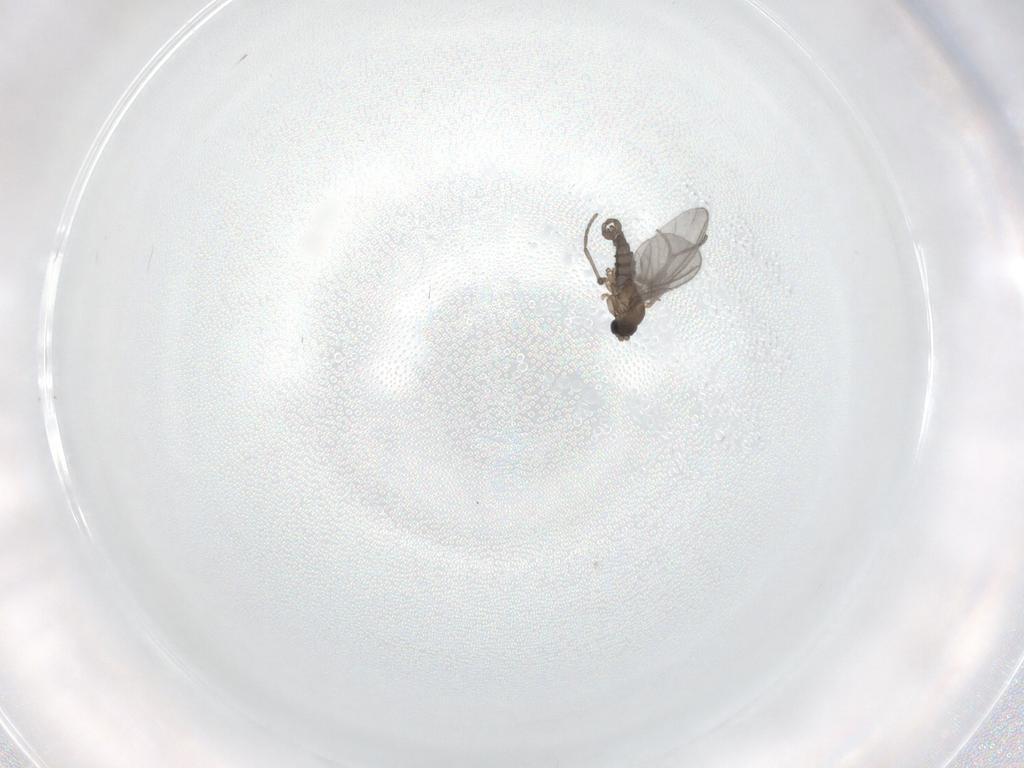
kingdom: Animalia
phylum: Arthropoda
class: Insecta
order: Diptera
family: Sciaridae
